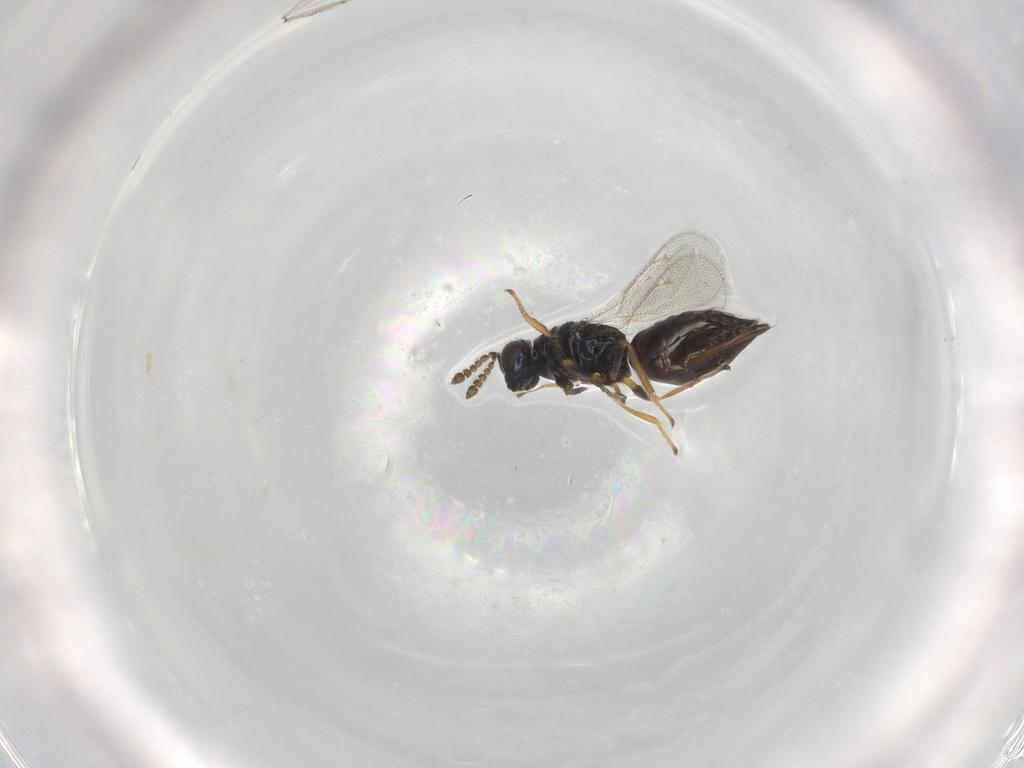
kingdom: Animalia
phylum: Arthropoda
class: Insecta
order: Hymenoptera
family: Eulophidae
